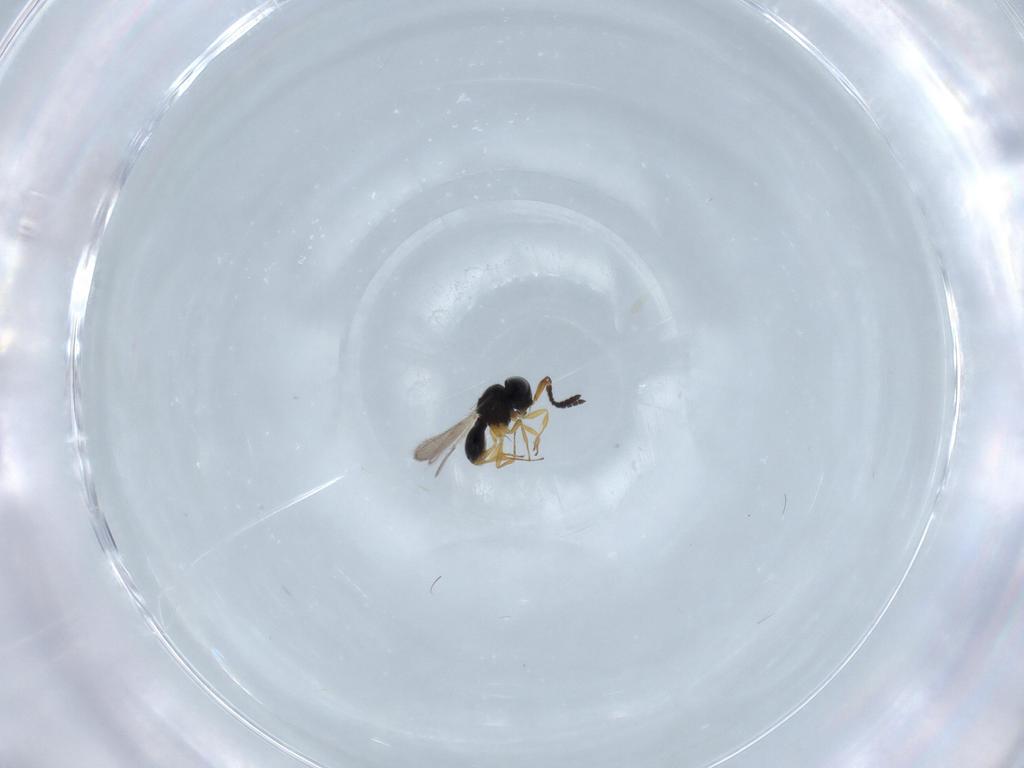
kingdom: Animalia
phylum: Arthropoda
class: Insecta
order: Hymenoptera
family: Scelionidae
